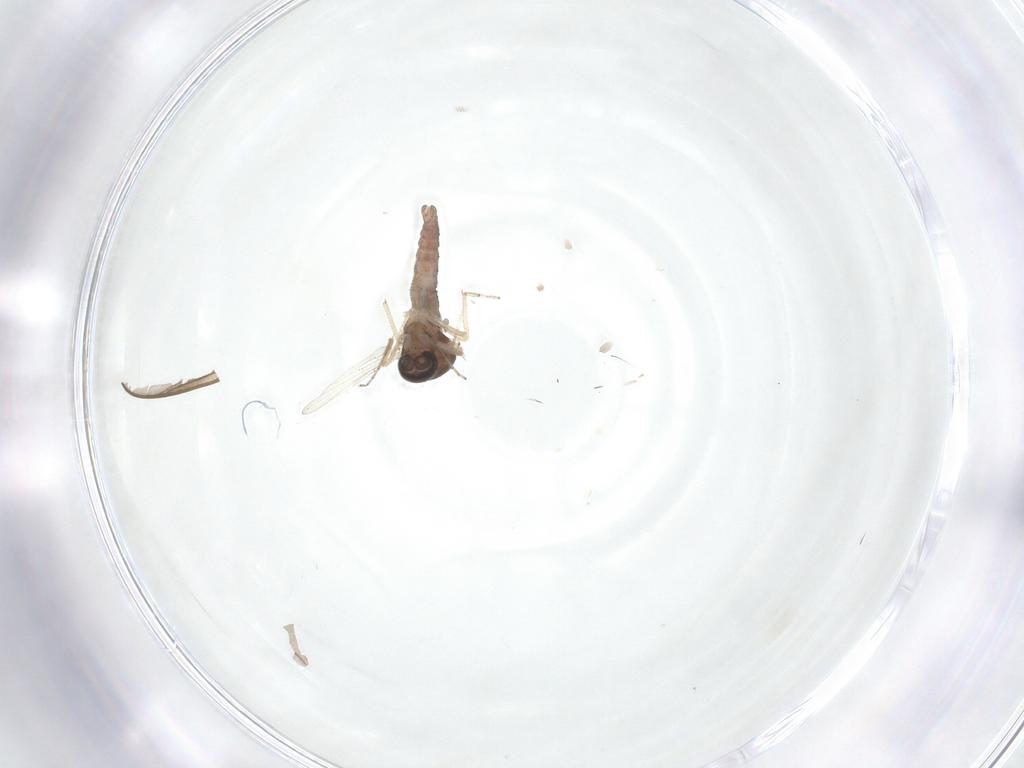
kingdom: Animalia
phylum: Arthropoda
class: Insecta
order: Diptera
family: Ceratopogonidae
